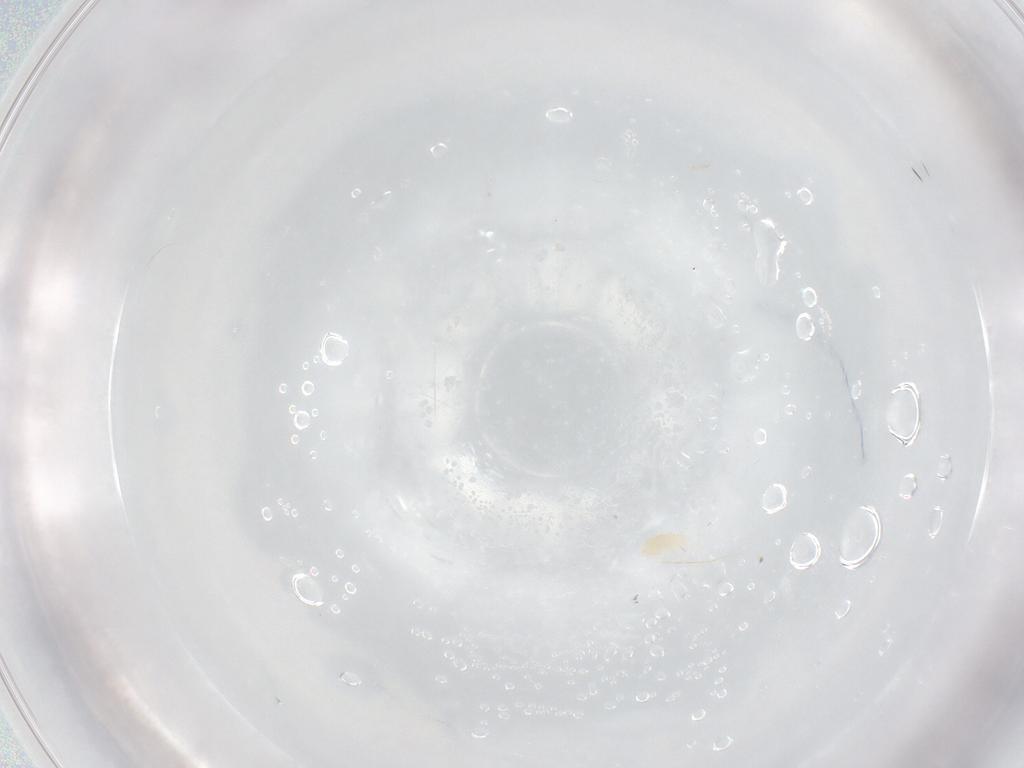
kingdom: Animalia
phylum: Arthropoda
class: Arachnida
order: Trombidiformes
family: Eupodidae
